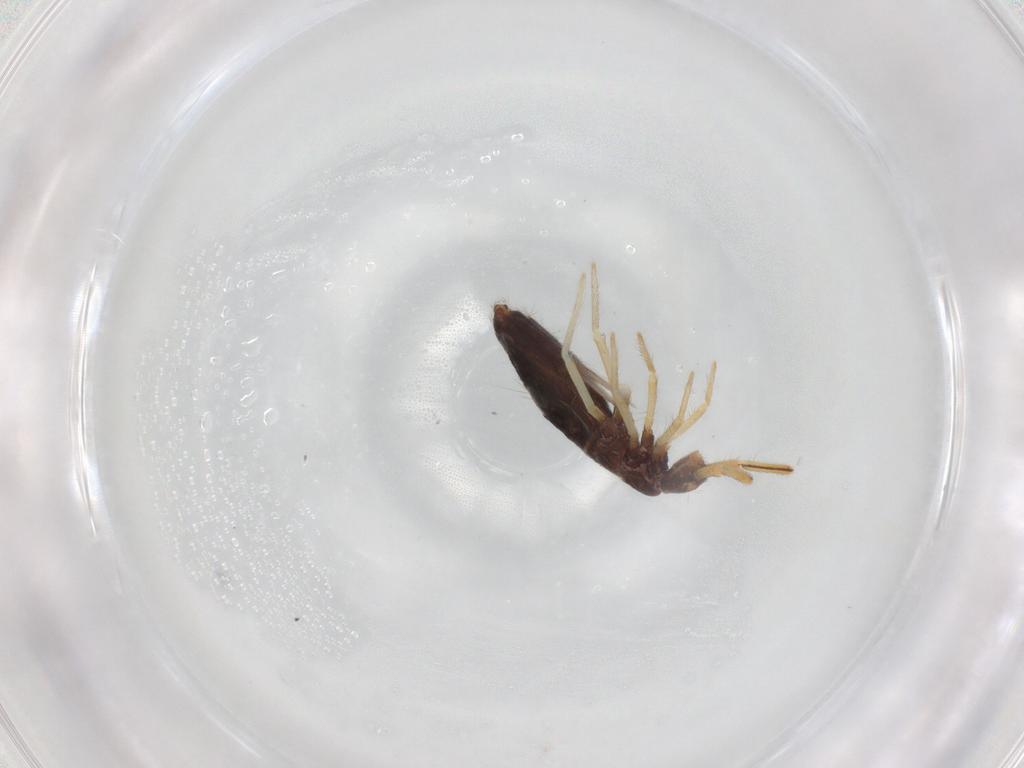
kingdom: Animalia
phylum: Arthropoda
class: Collembola
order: Entomobryomorpha
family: Entomobryidae
